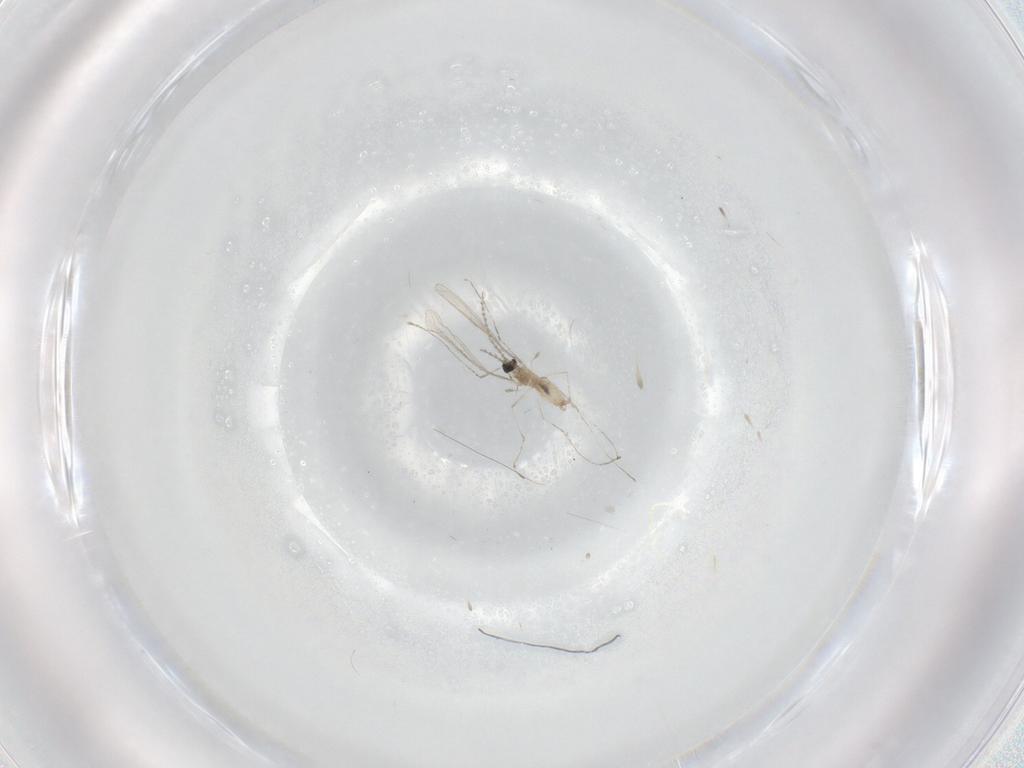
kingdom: Animalia
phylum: Arthropoda
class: Insecta
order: Diptera
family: Cecidomyiidae
